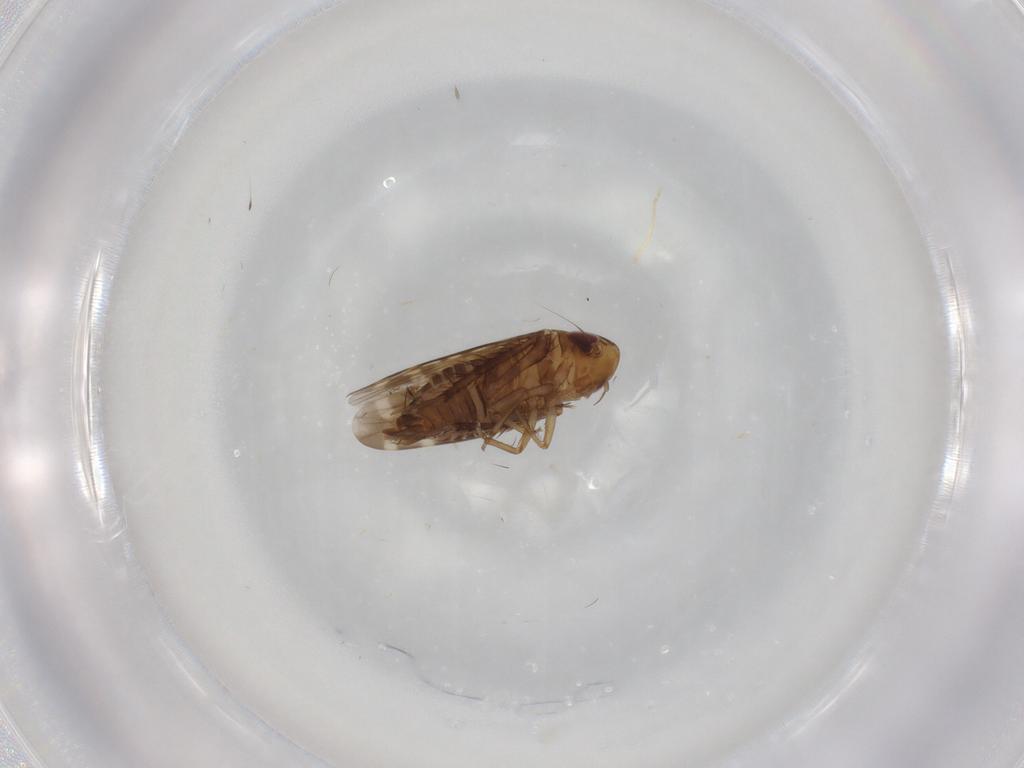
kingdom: Animalia
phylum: Arthropoda
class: Insecta
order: Hemiptera
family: Cicadellidae
